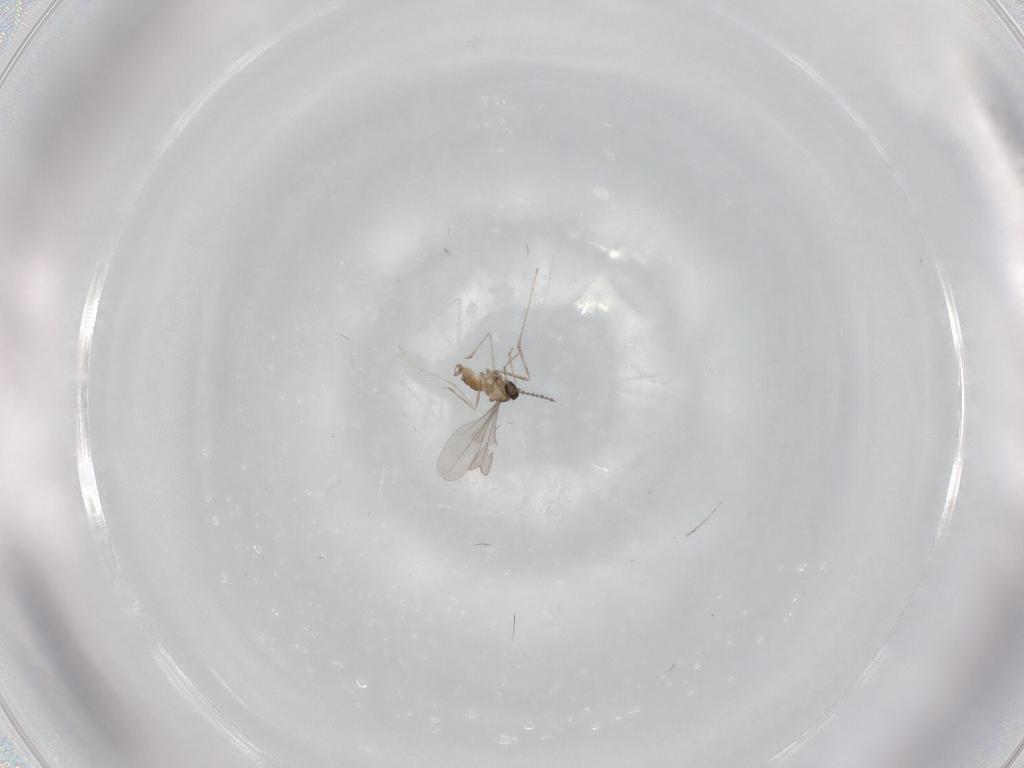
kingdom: Animalia
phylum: Arthropoda
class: Insecta
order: Diptera
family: Cecidomyiidae
